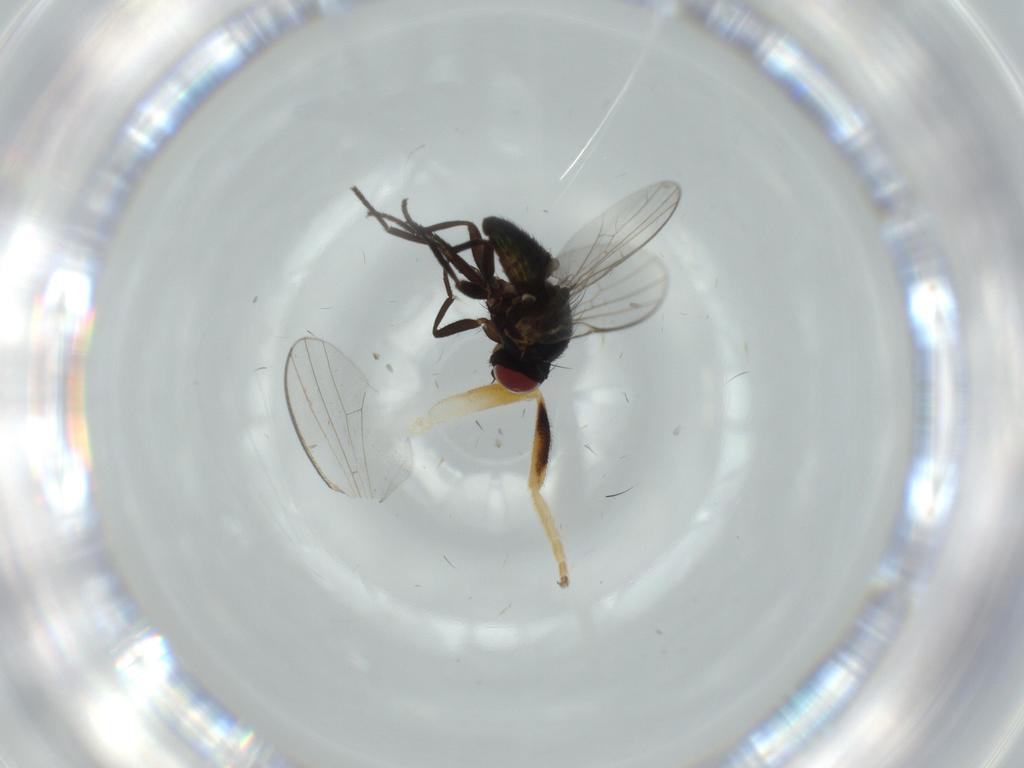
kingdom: Animalia
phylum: Arthropoda
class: Insecta
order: Diptera
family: Agromyzidae
